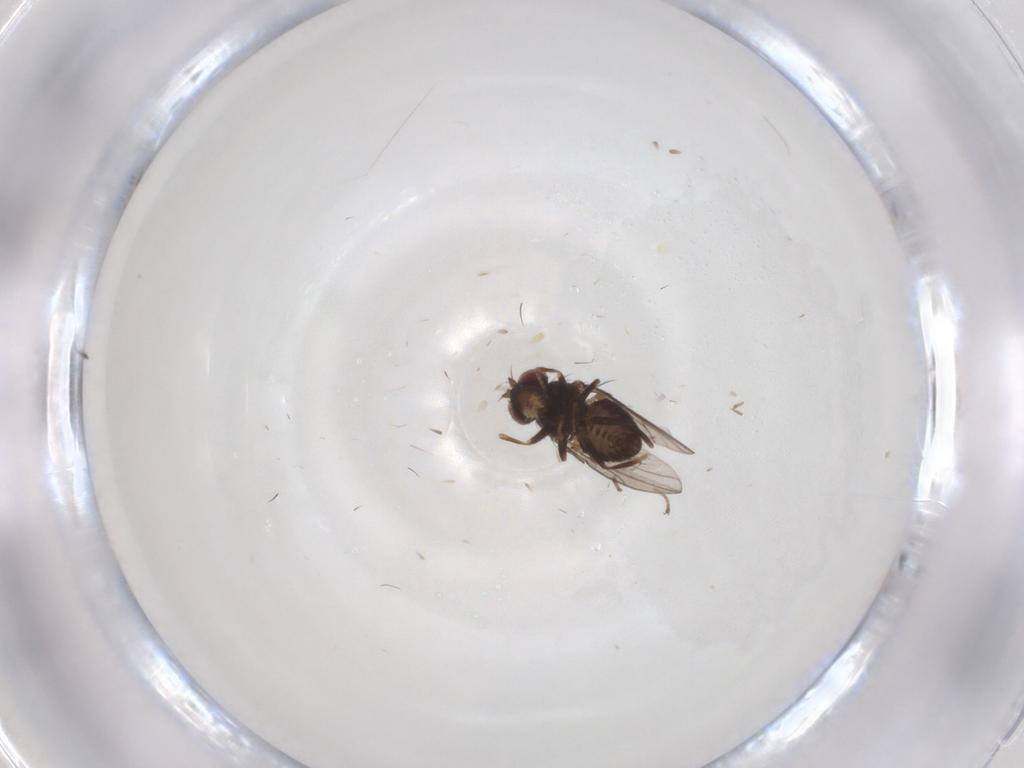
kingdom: Animalia
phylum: Arthropoda
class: Insecta
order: Diptera
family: Ephydridae
